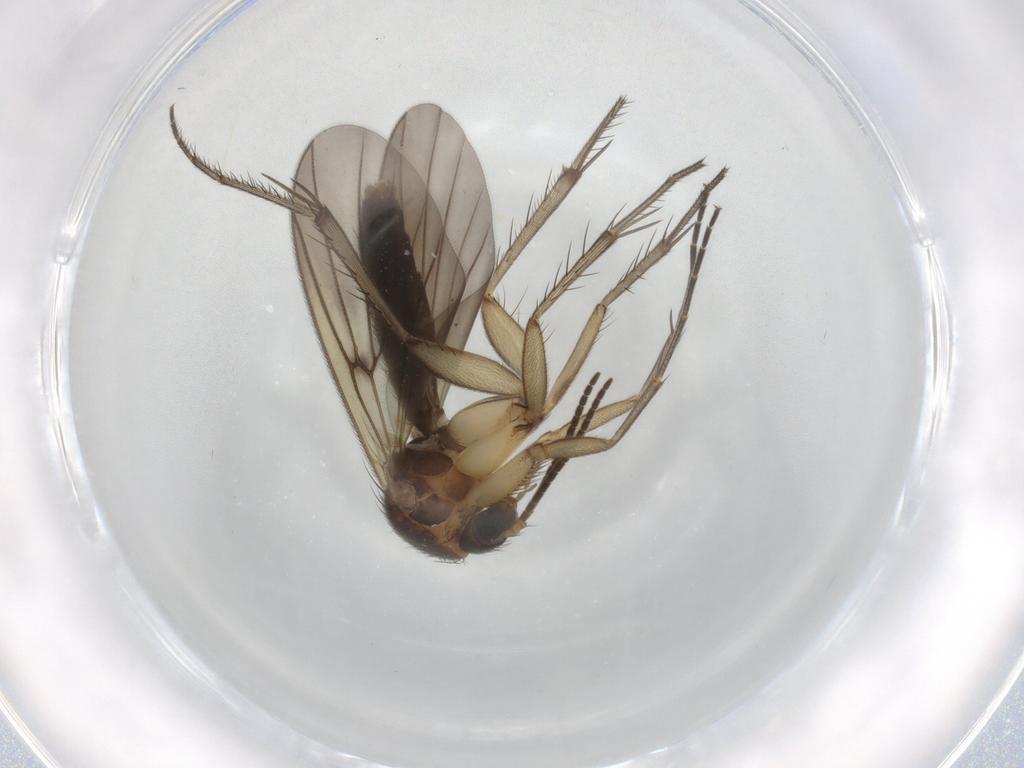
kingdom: Animalia
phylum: Arthropoda
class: Insecta
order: Diptera
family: Mycetophilidae
